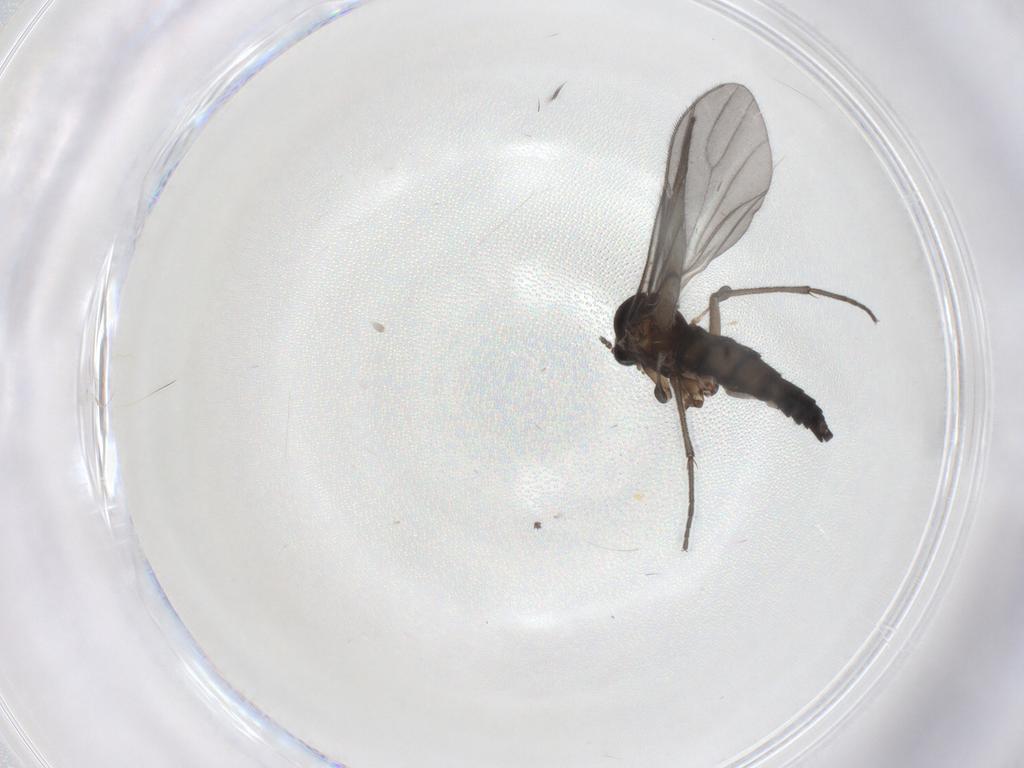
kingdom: Animalia
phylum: Arthropoda
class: Insecta
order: Diptera
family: Sciaridae
